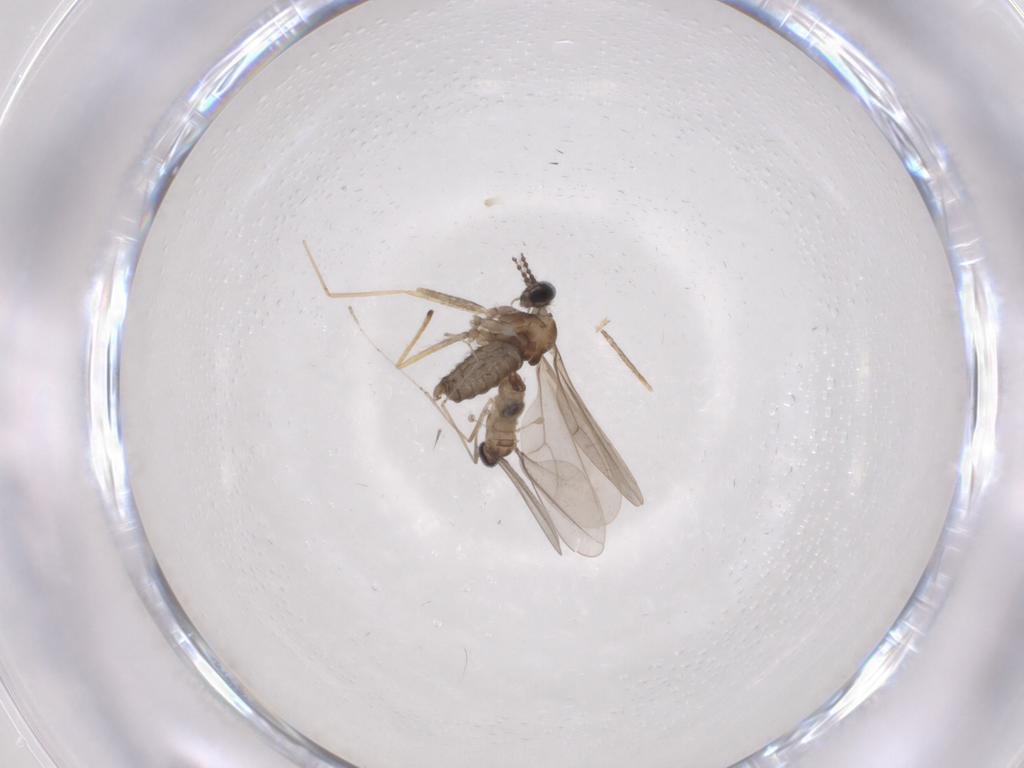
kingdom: Animalia
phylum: Arthropoda
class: Insecta
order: Diptera
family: Cecidomyiidae
